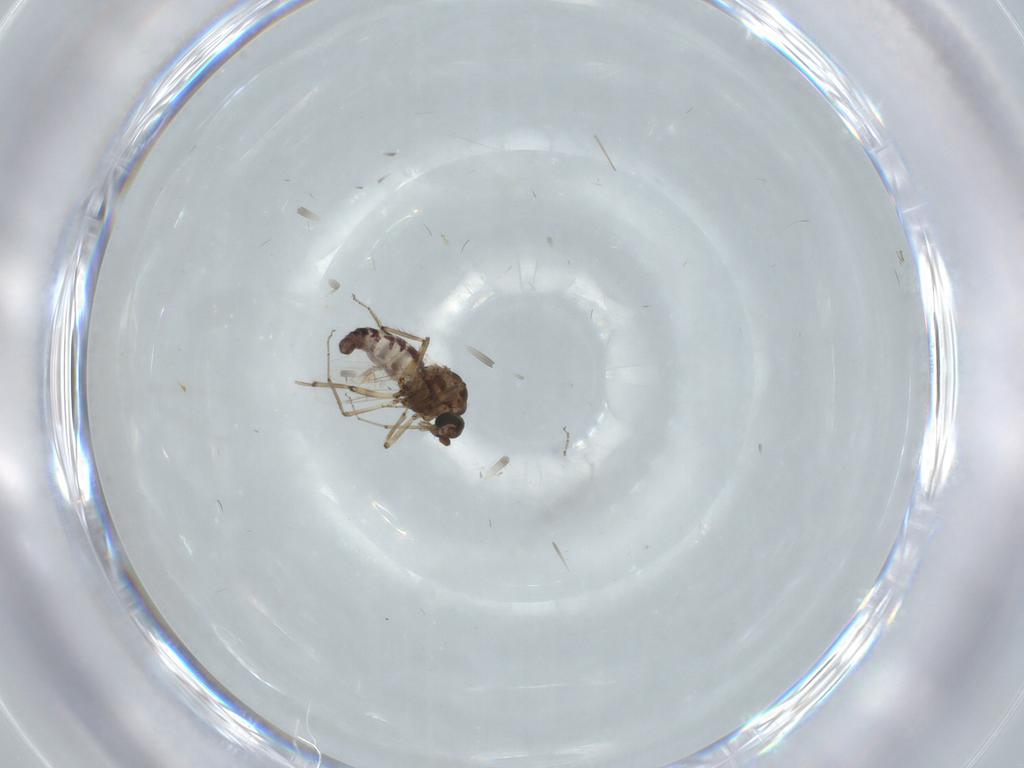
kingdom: Animalia
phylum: Arthropoda
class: Insecta
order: Diptera
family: Ceratopogonidae
